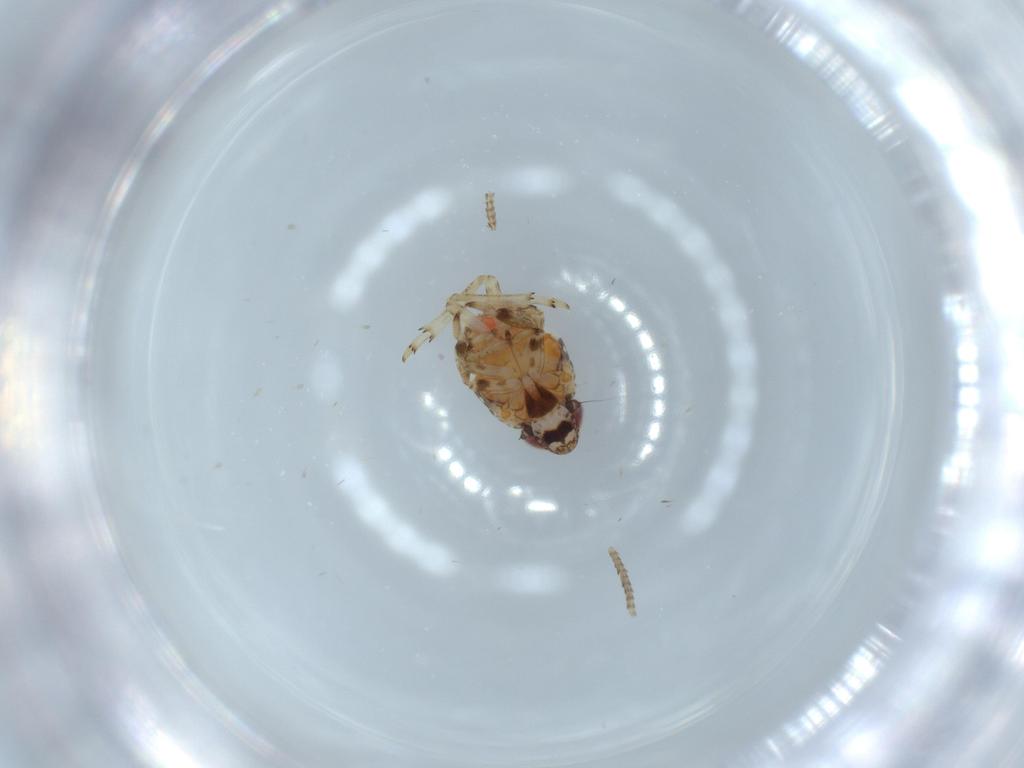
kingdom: Animalia
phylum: Arthropoda
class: Insecta
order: Hemiptera
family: Issidae
